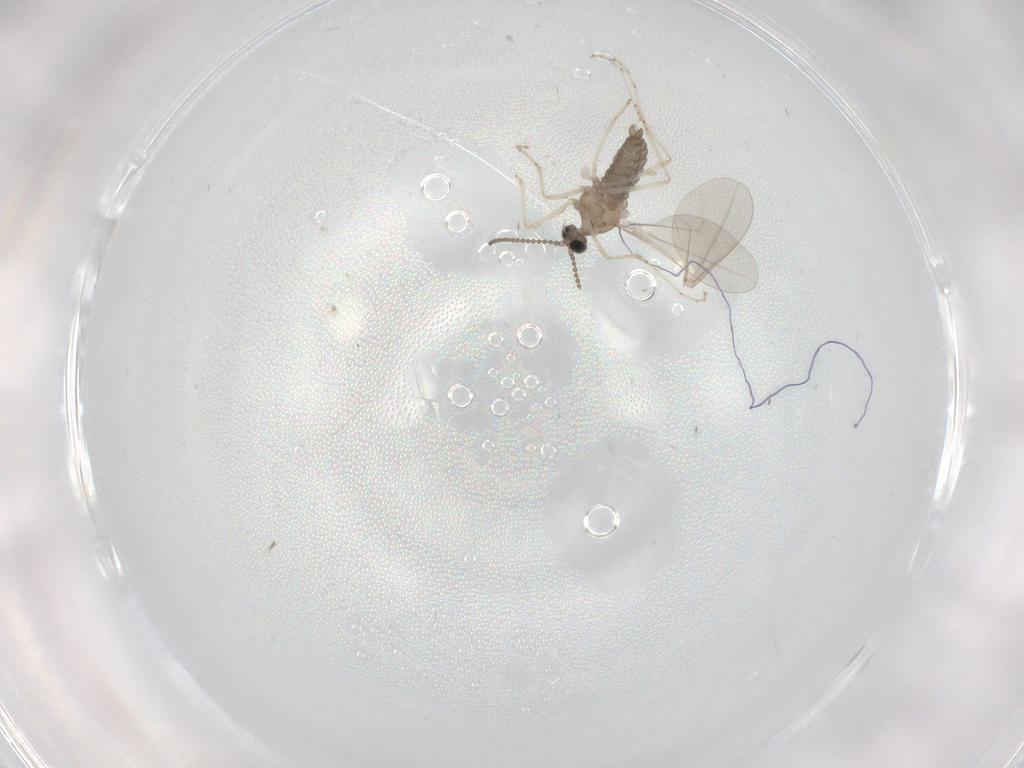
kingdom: Animalia
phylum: Arthropoda
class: Insecta
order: Diptera
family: Cecidomyiidae
